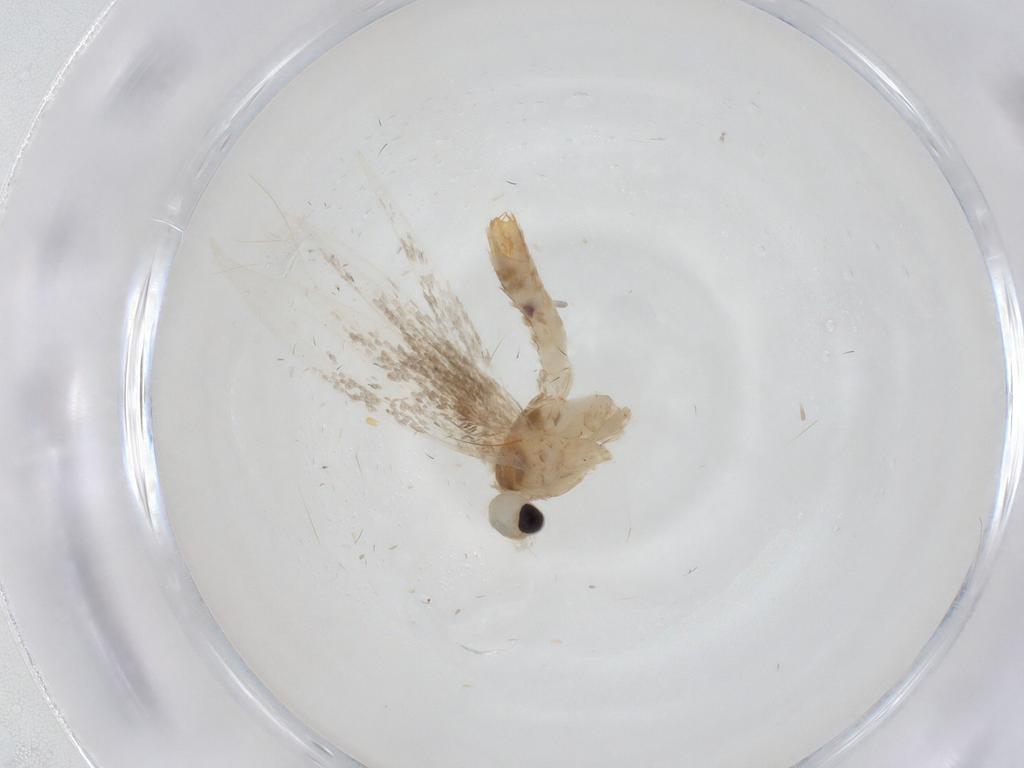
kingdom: Animalia
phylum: Arthropoda
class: Insecta
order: Lepidoptera
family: Gracillariidae
